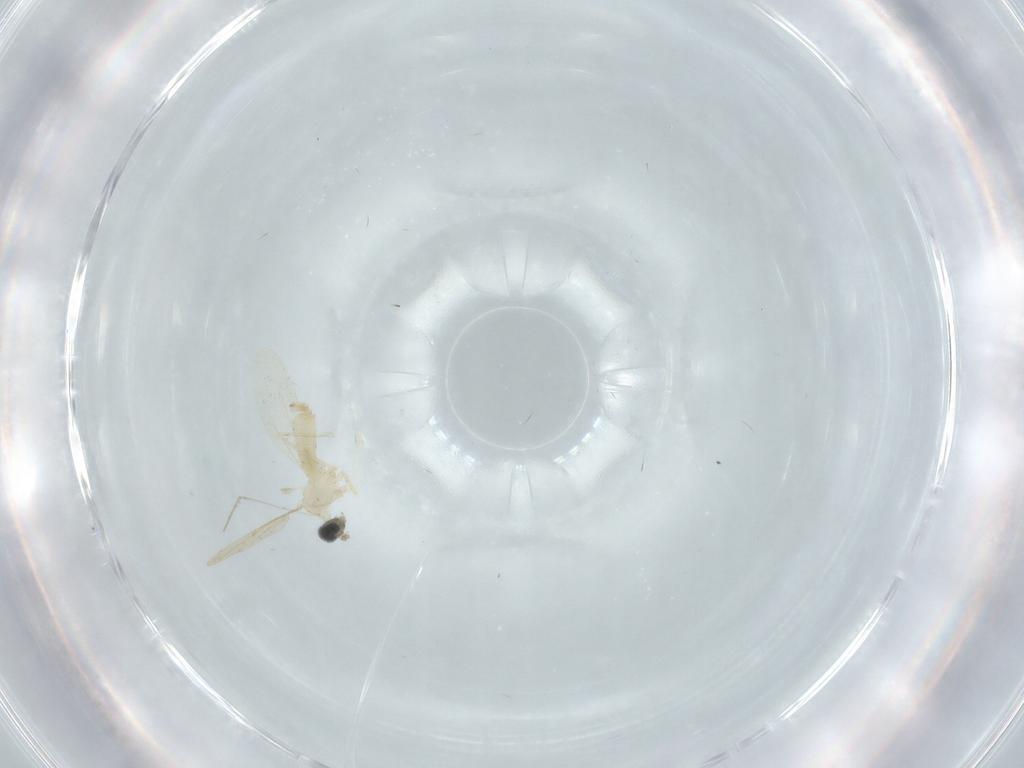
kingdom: Animalia
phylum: Arthropoda
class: Insecta
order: Diptera
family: Cecidomyiidae
